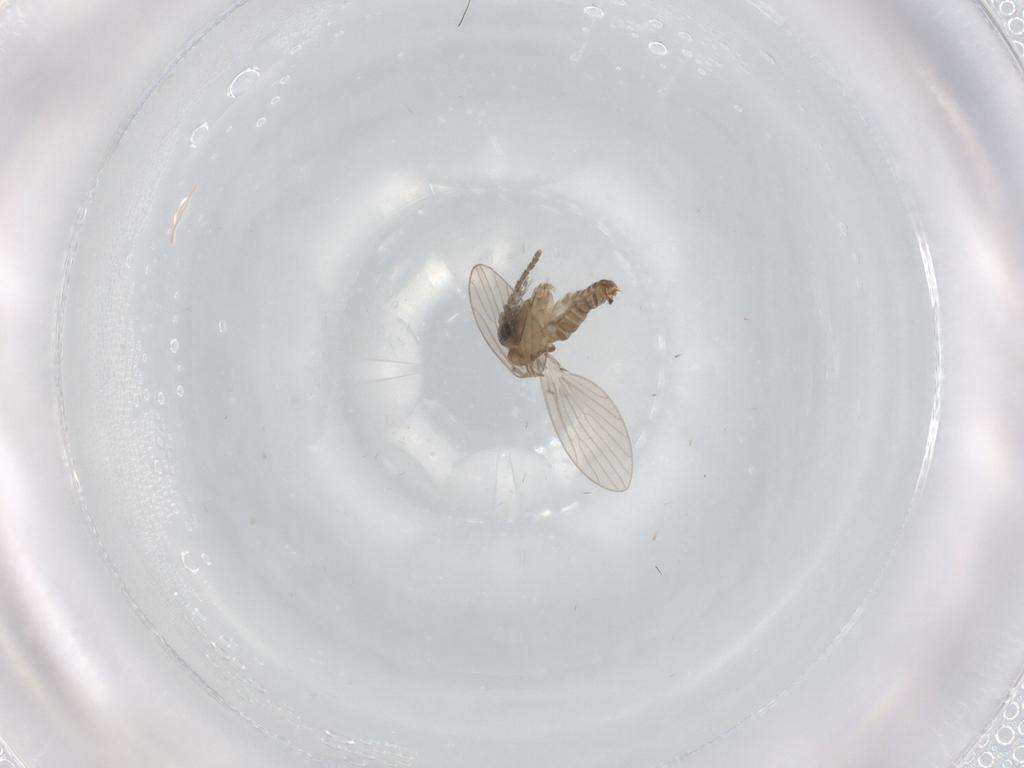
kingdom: Animalia
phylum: Arthropoda
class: Insecta
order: Diptera
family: Cecidomyiidae
